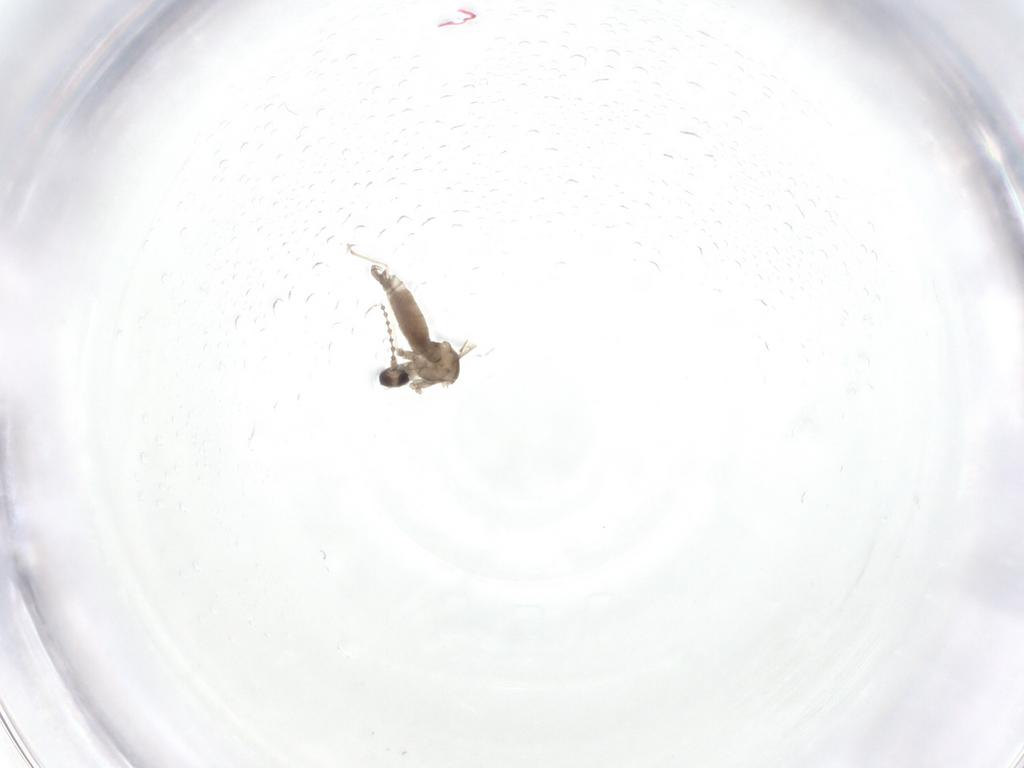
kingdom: Animalia
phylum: Arthropoda
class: Insecta
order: Diptera
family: Cecidomyiidae
